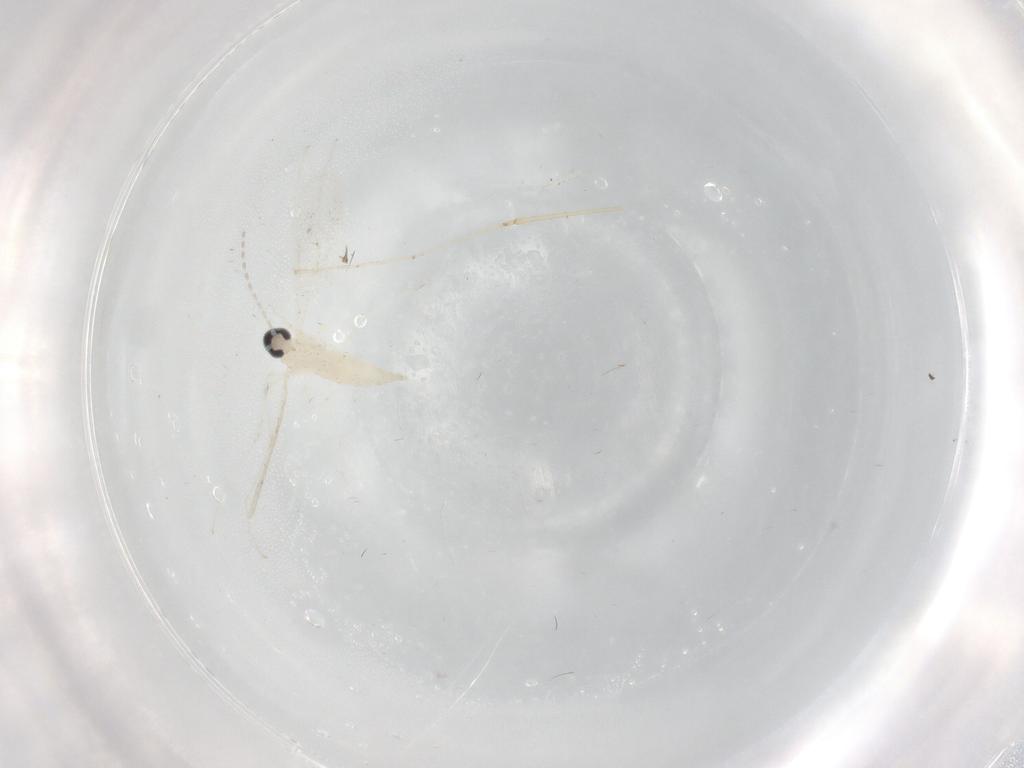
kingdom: Animalia
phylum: Arthropoda
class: Insecta
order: Diptera
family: Cecidomyiidae
